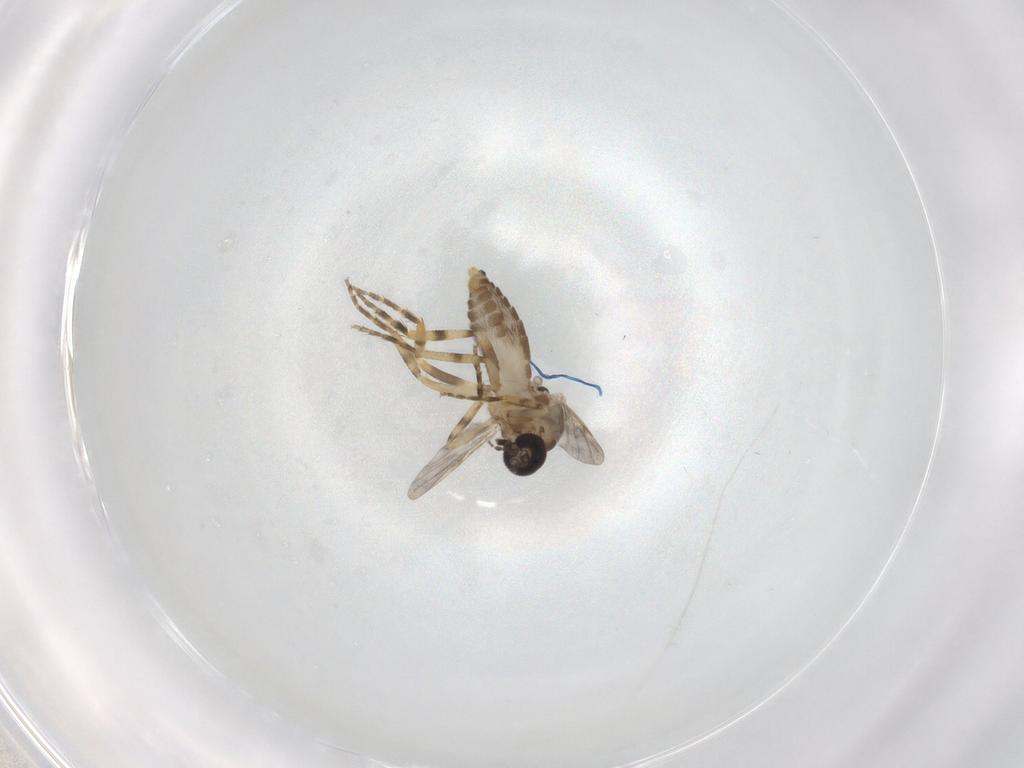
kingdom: Animalia
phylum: Arthropoda
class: Insecta
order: Diptera
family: Ceratopogonidae
